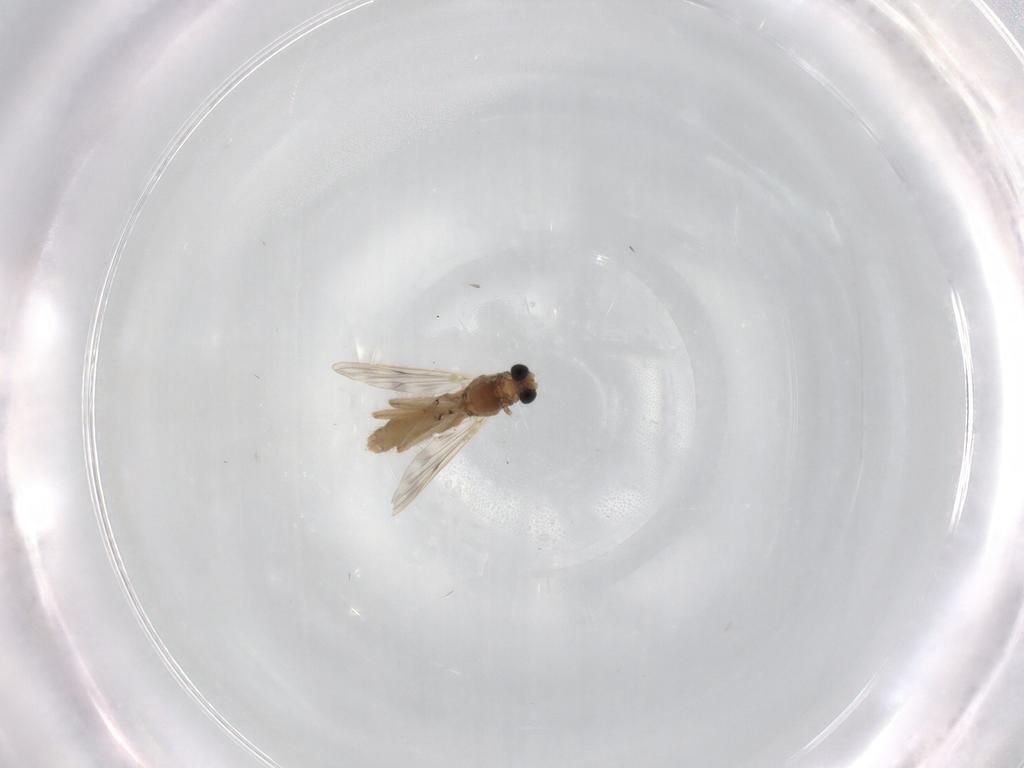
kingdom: Animalia
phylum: Arthropoda
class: Insecta
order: Diptera
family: Chironomidae
